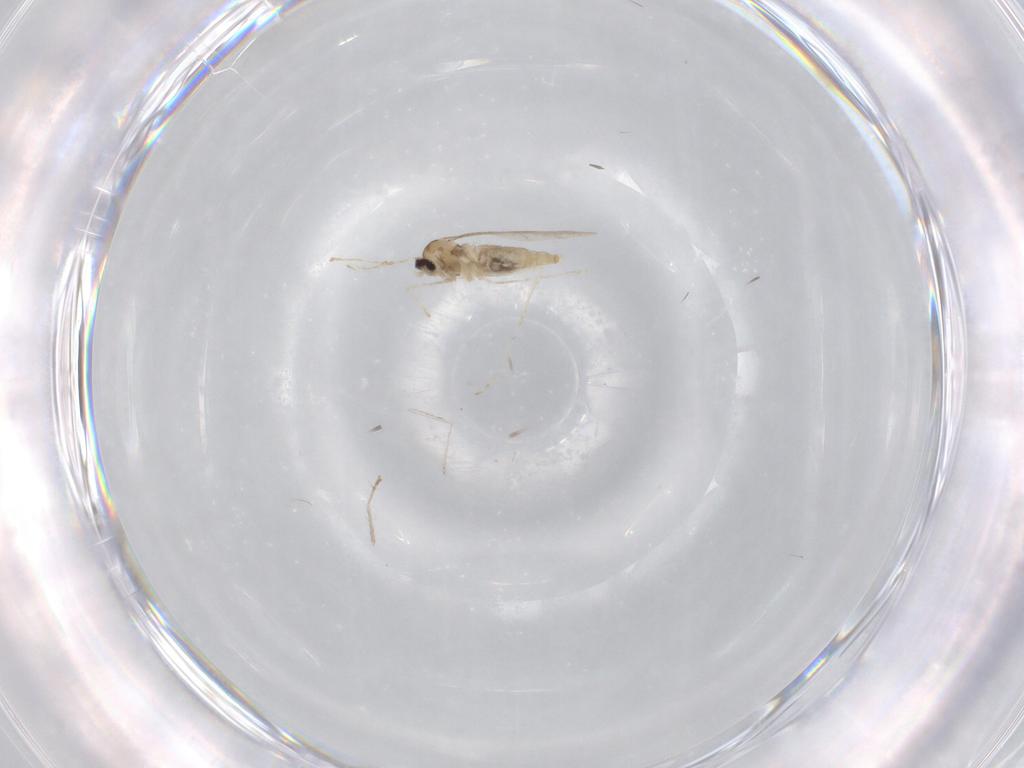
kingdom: Animalia
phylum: Arthropoda
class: Insecta
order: Diptera
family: Cecidomyiidae
